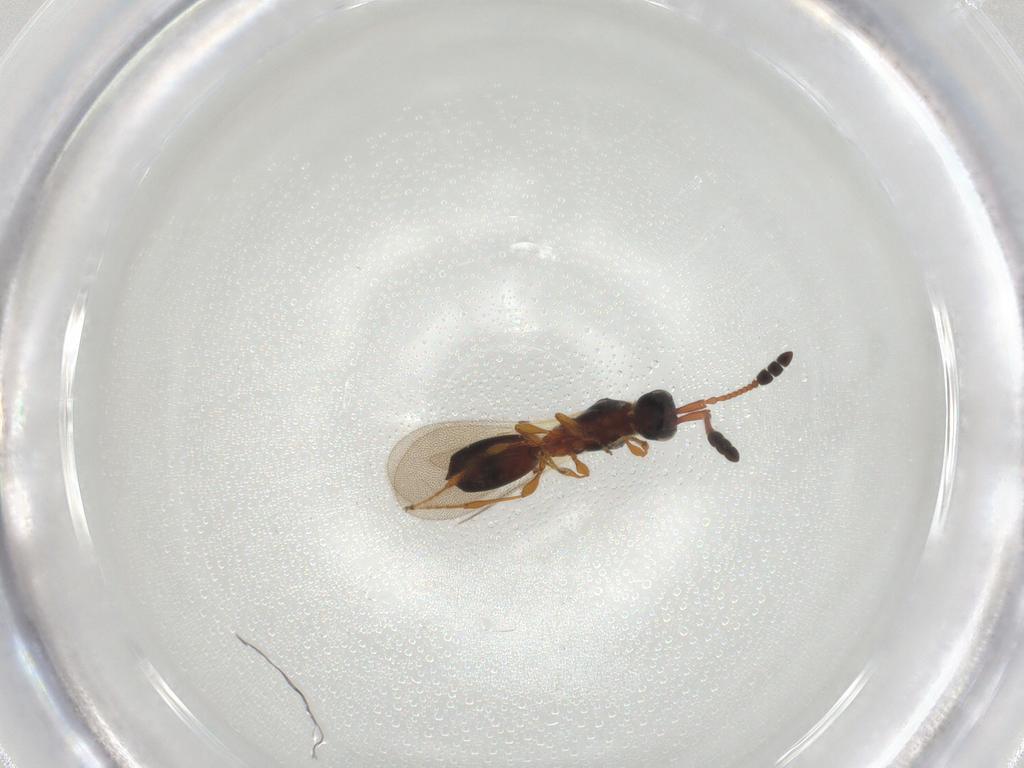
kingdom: Animalia
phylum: Arthropoda
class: Insecta
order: Hymenoptera
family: Diapriidae
